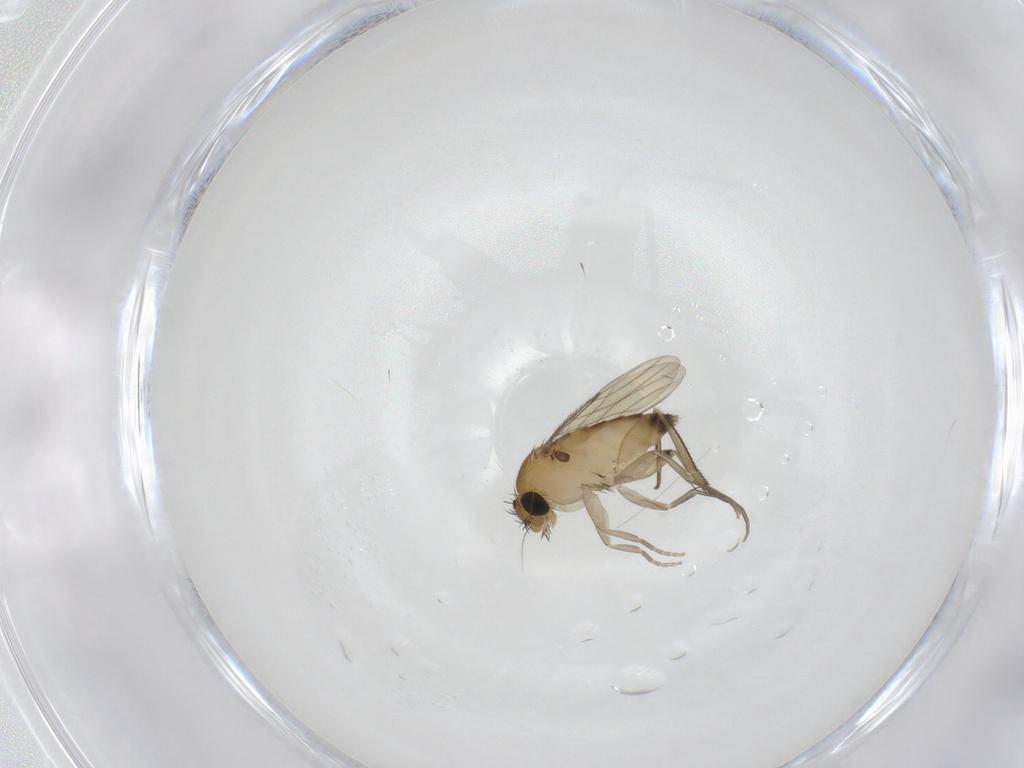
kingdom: Animalia
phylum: Arthropoda
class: Insecta
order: Diptera
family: Phoridae
